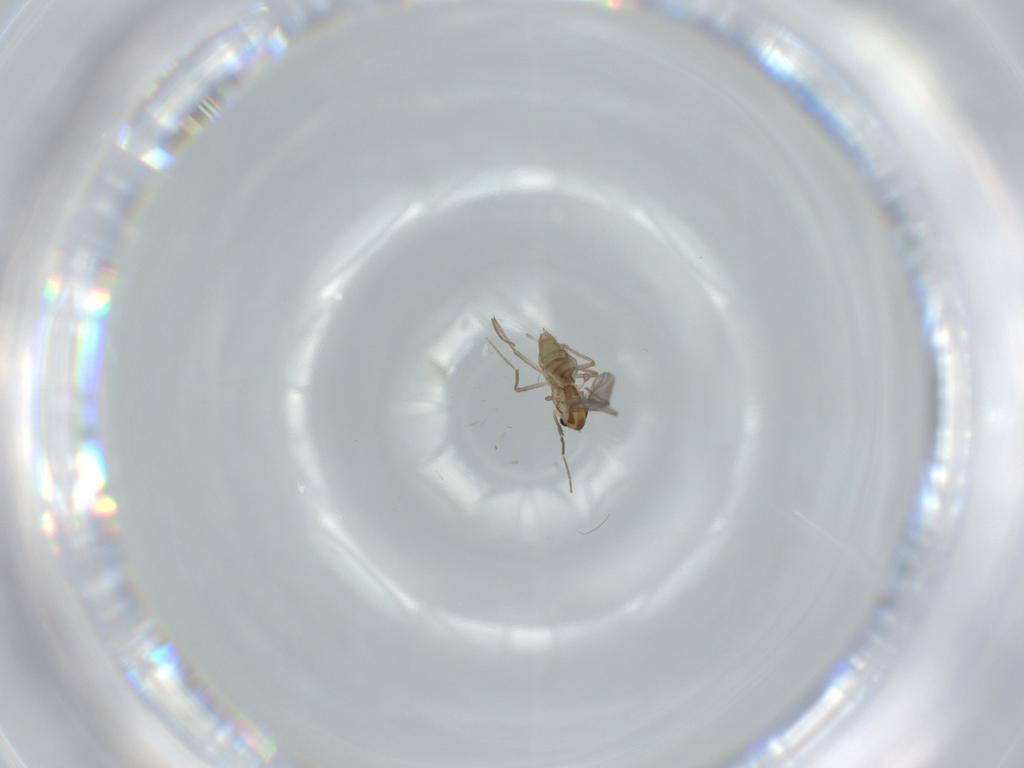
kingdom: Animalia
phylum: Arthropoda
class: Insecta
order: Diptera
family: Chironomidae
